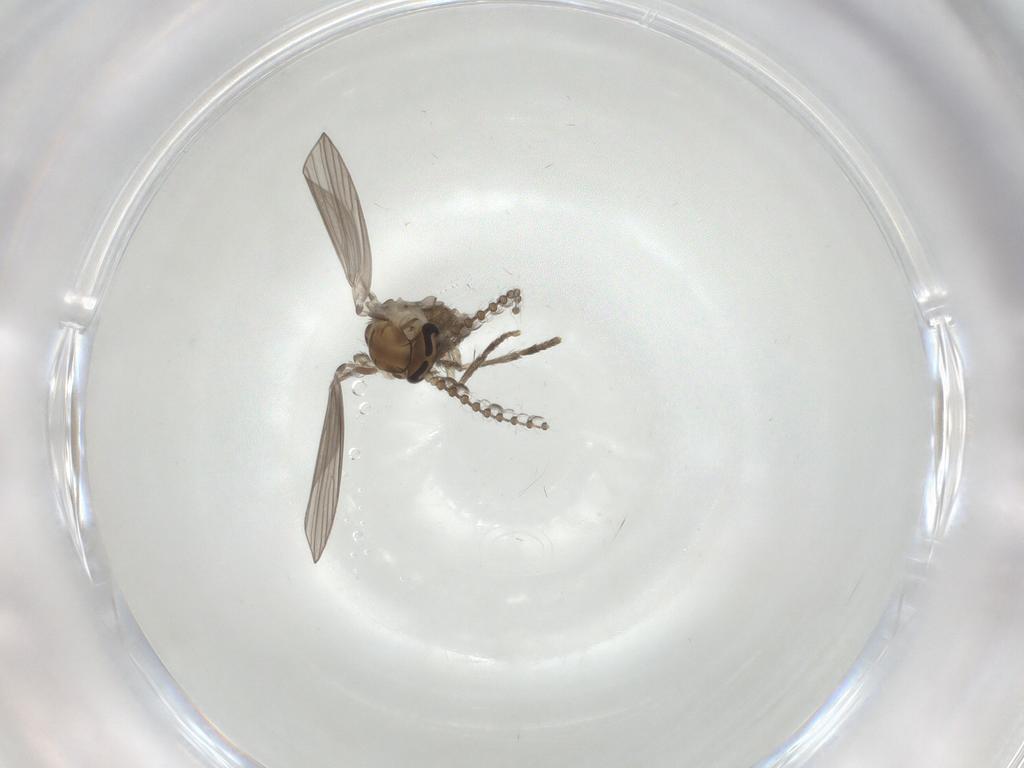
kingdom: Animalia
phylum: Arthropoda
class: Insecta
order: Diptera
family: Psychodidae
